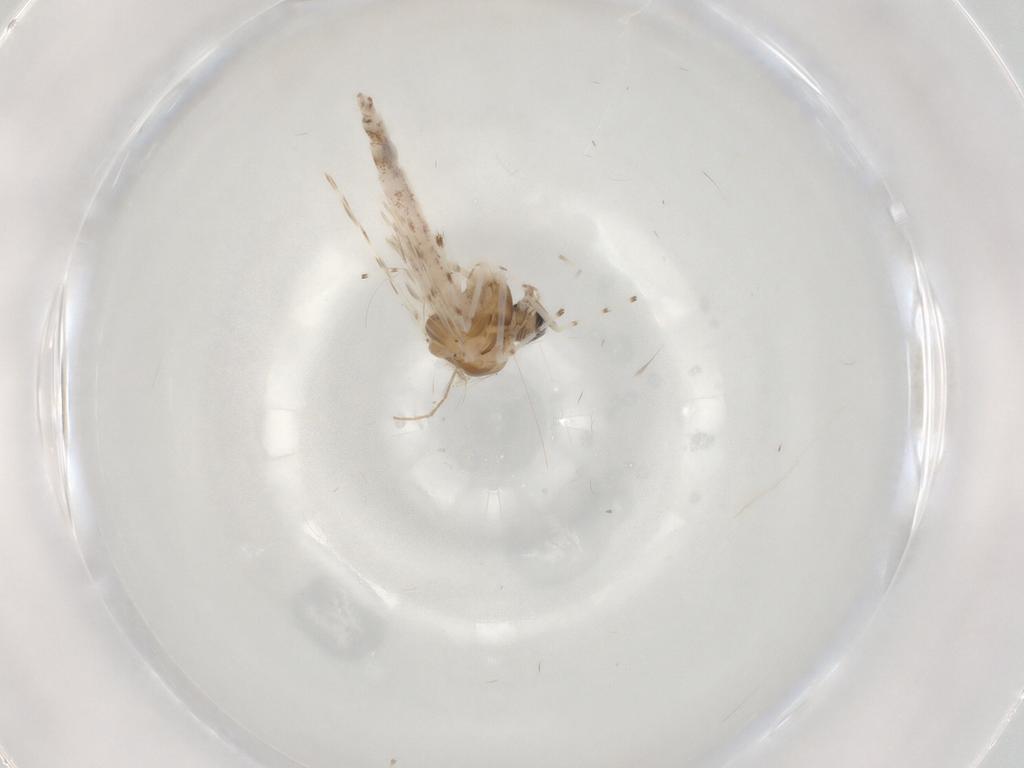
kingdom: Animalia
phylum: Arthropoda
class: Insecta
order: Diptera
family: Chironomidae
